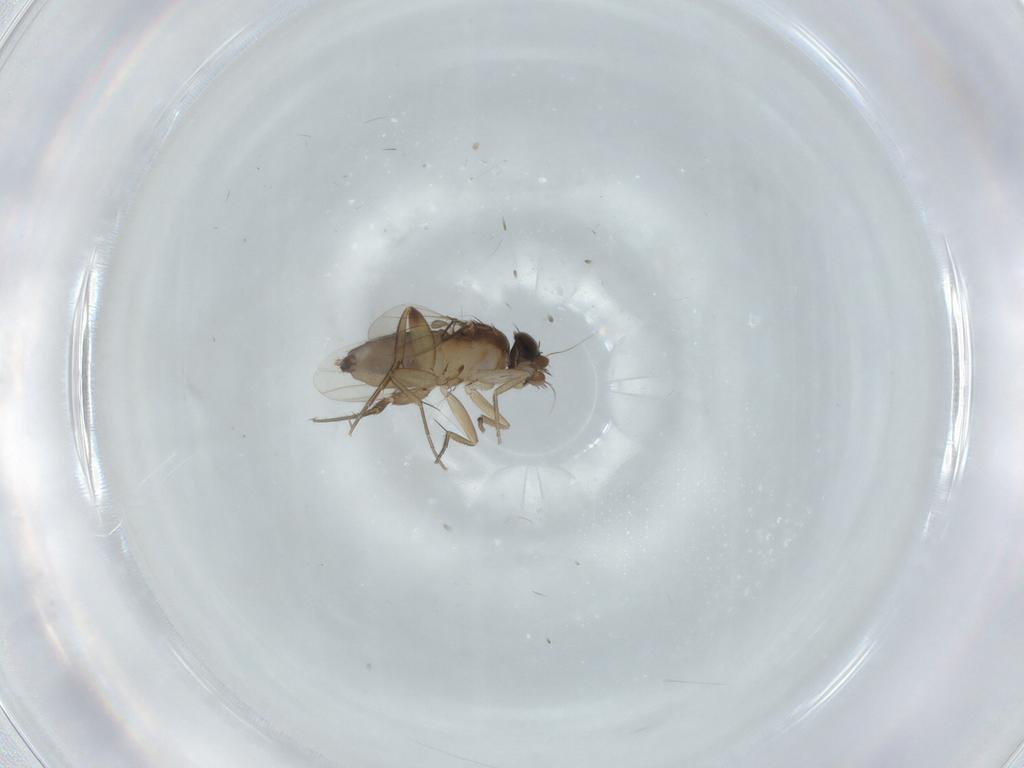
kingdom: Animalia
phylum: Arthropoda
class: Insecta
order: Diptera
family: Phoridae
